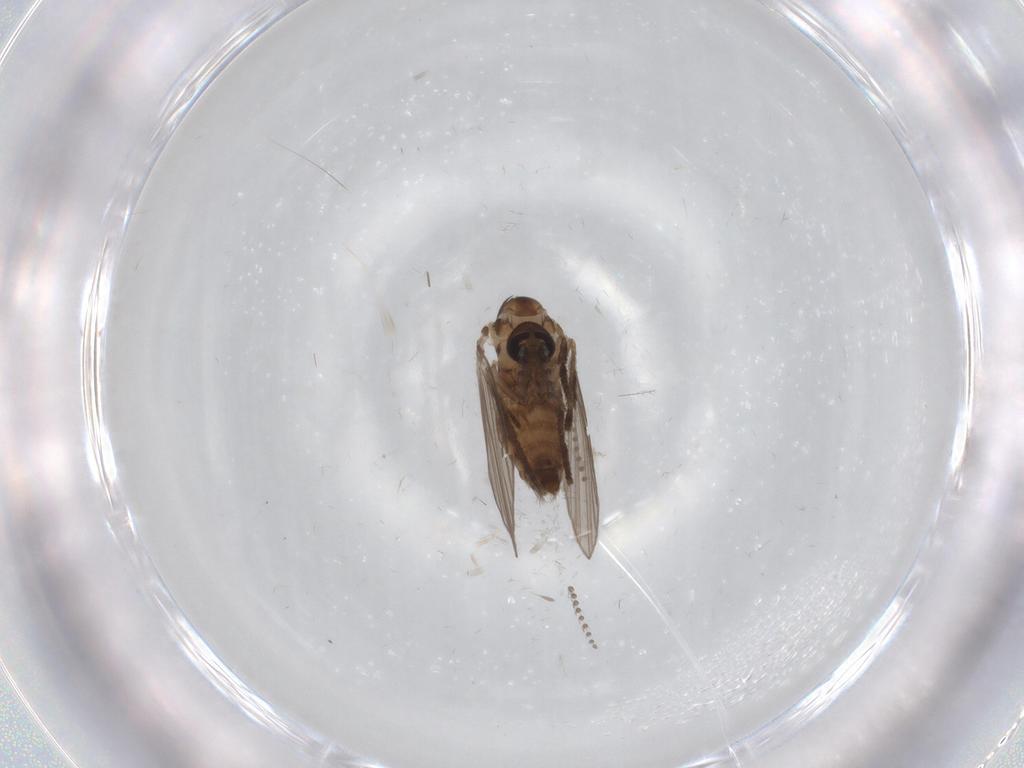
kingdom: Animalia
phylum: Arthropoda
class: Insecta
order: Diptera
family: Psychodidae
